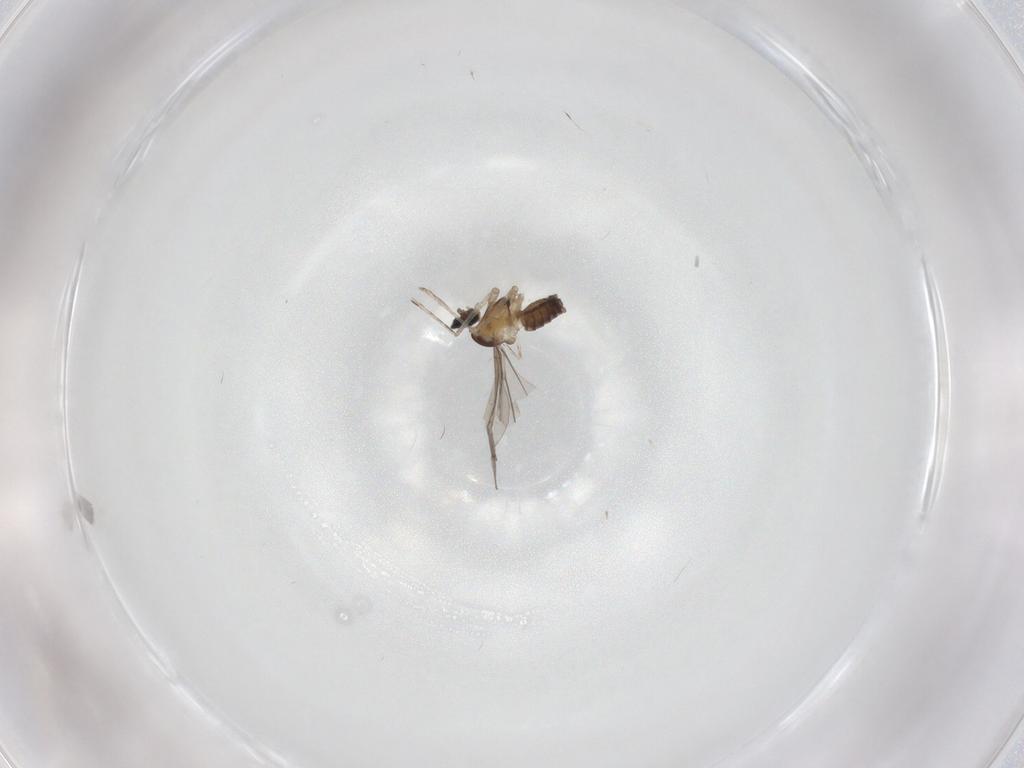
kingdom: Animalia
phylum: Arthropoda
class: Insecta
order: Diptera
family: Cecidomyiidae
